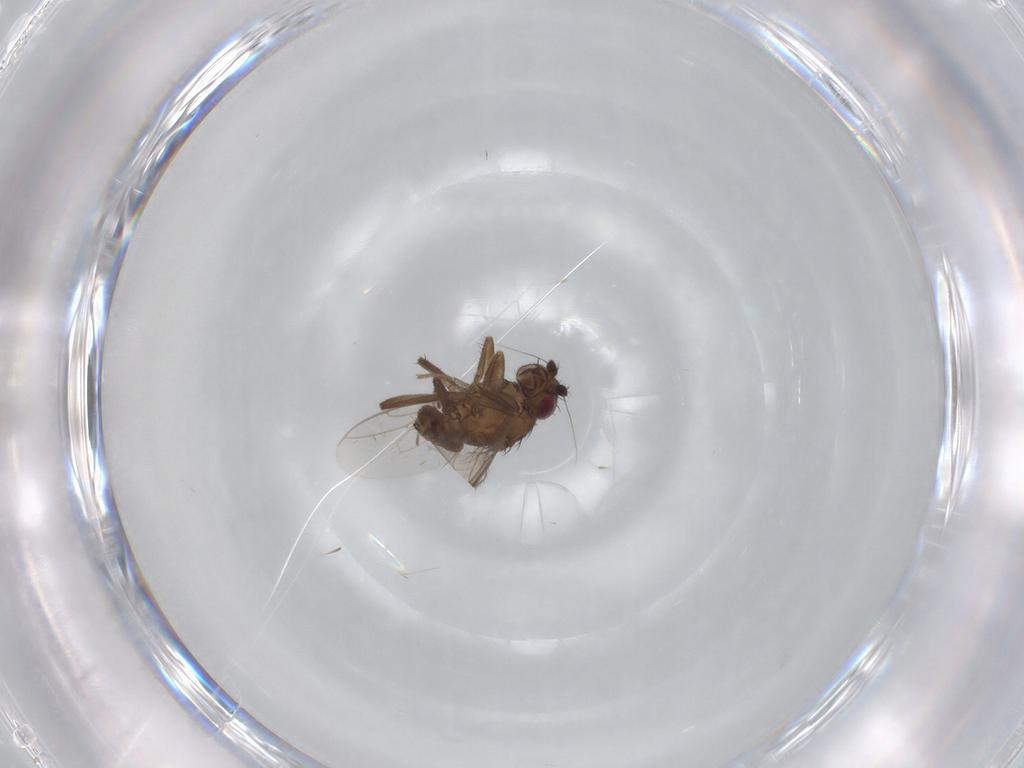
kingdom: Animalia
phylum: Arthropoda
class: Insecta
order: Diptera
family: Sphaeroceridae
